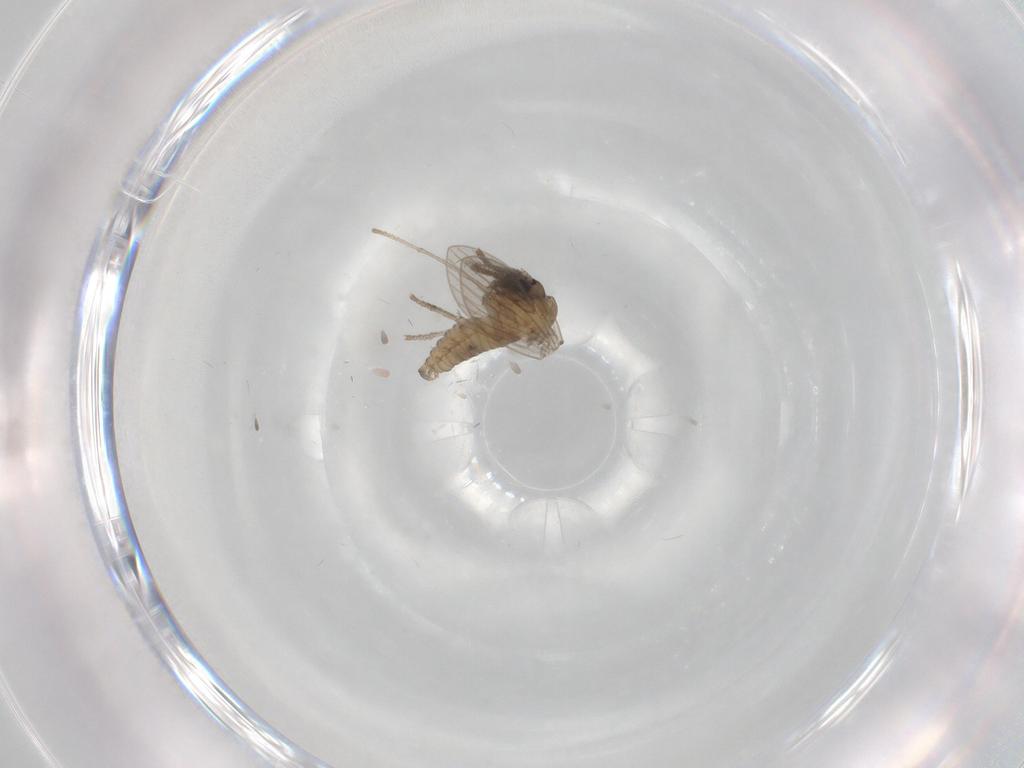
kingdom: Animalia
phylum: Arthropoda
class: Insecta
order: Diptera
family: Psychodidae
